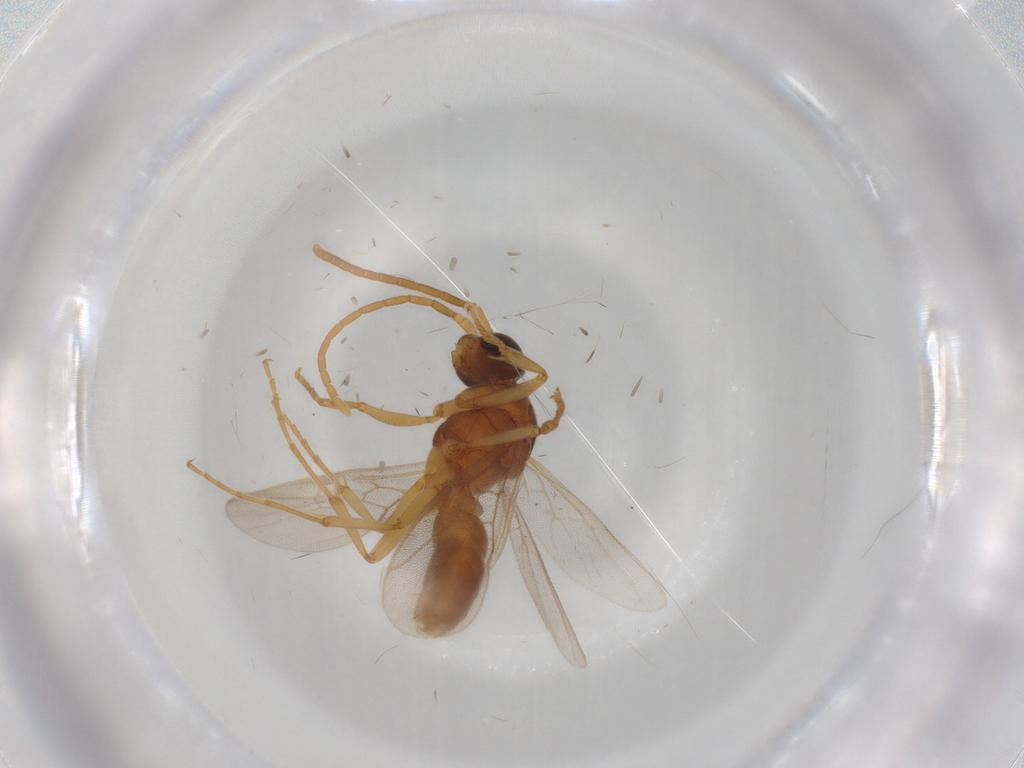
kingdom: Animalia
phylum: Arthropoda
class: Insecta
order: Hymenoptera
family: Formicidae
